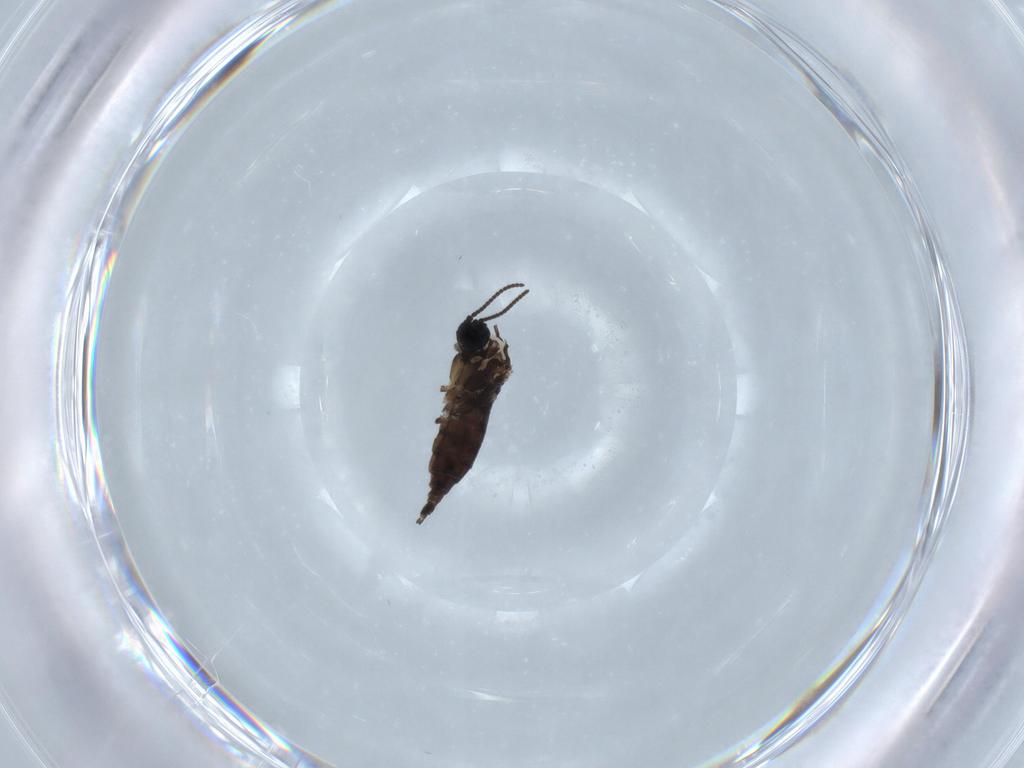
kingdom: Animalia
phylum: Arthropoda
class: Insecta
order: Diptera
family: Sciaridae
